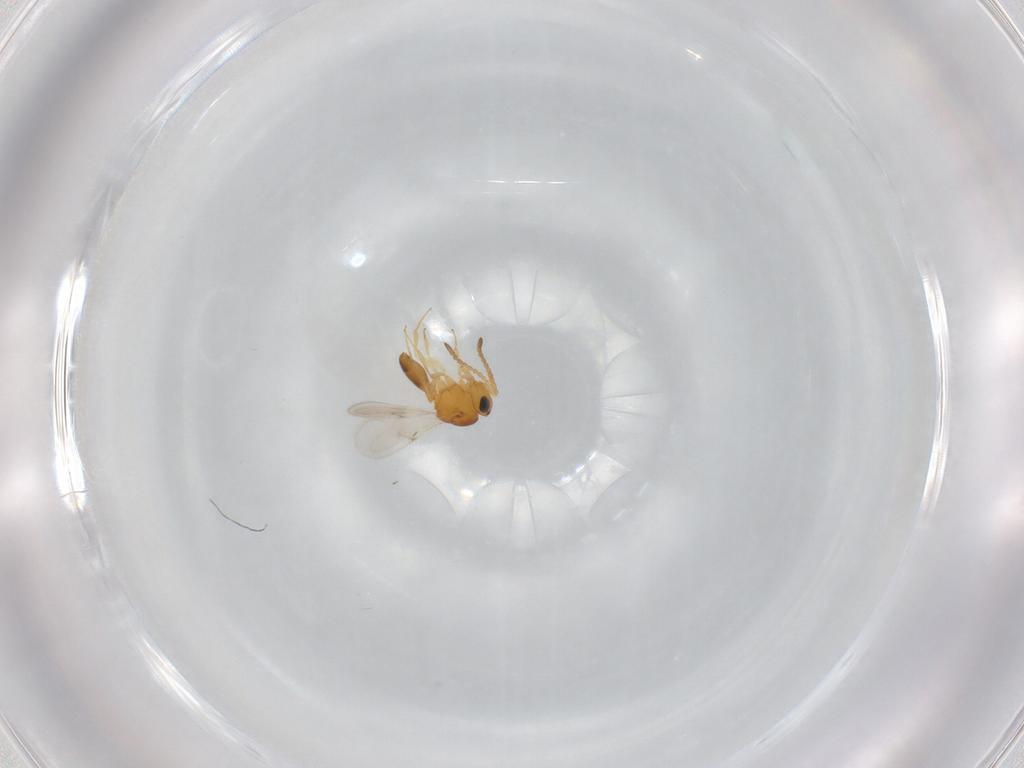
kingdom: Animalia
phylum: Arthropoda
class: Insecta
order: Hymenoptera
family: Scelionidae
